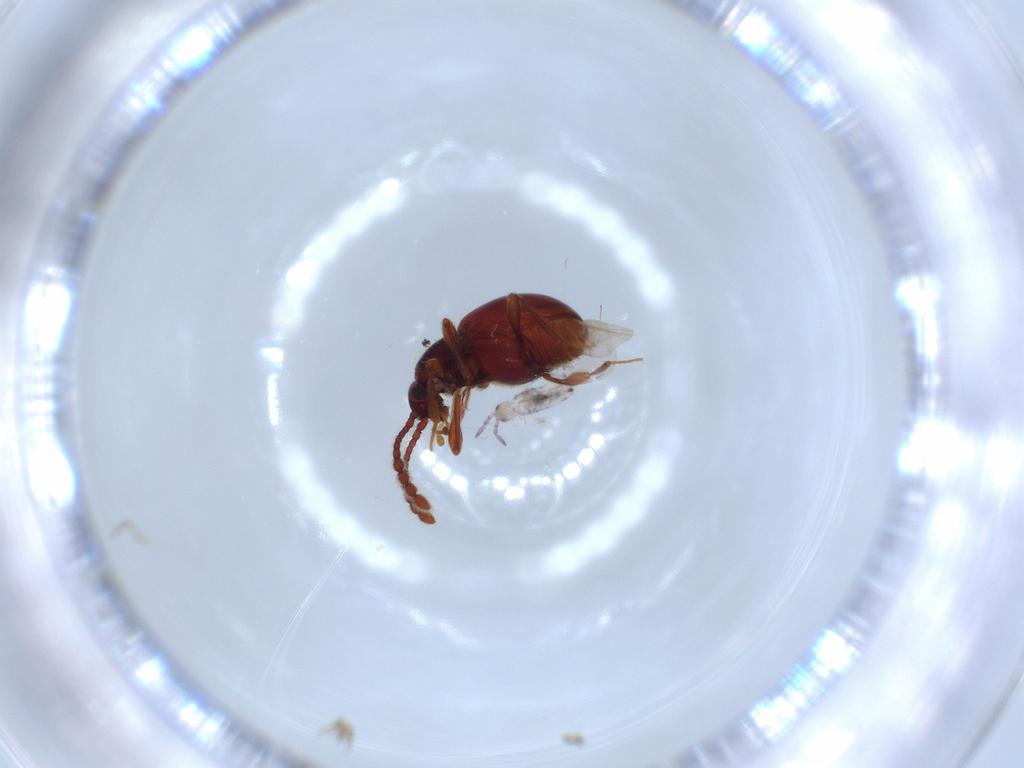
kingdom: Animalia
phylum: Arthropoda
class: Insecta
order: Coleoptera
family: Staphylinidae
